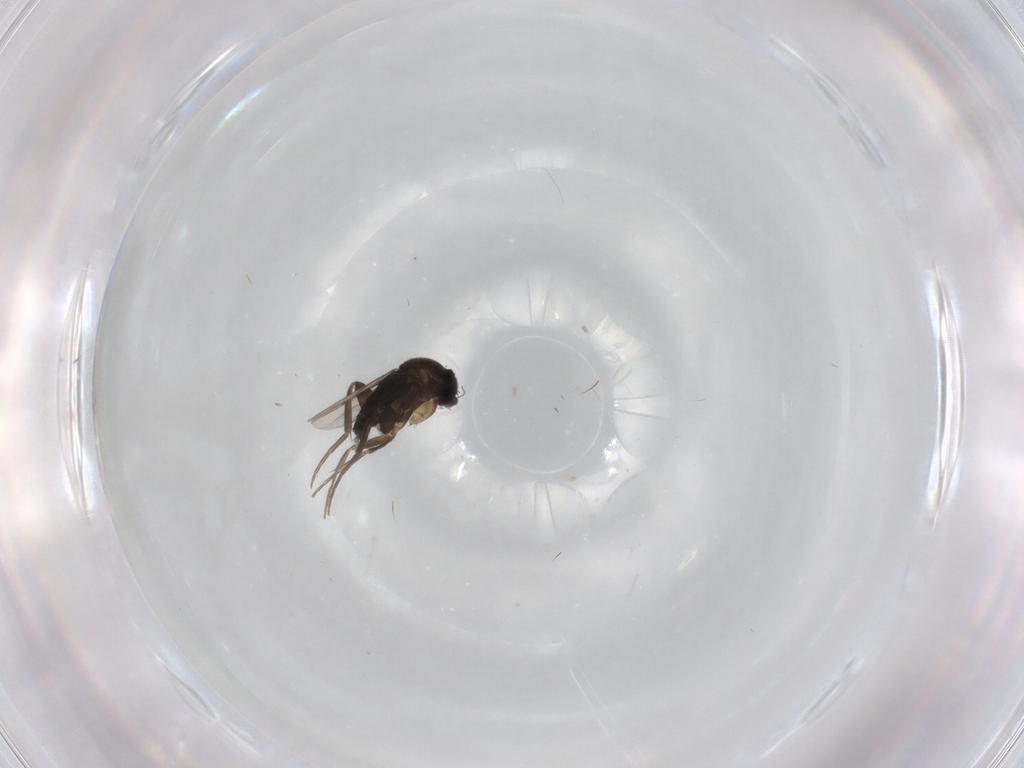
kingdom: Animalia
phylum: Arthropoda
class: Insecta
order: Diptera
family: Phoridae
